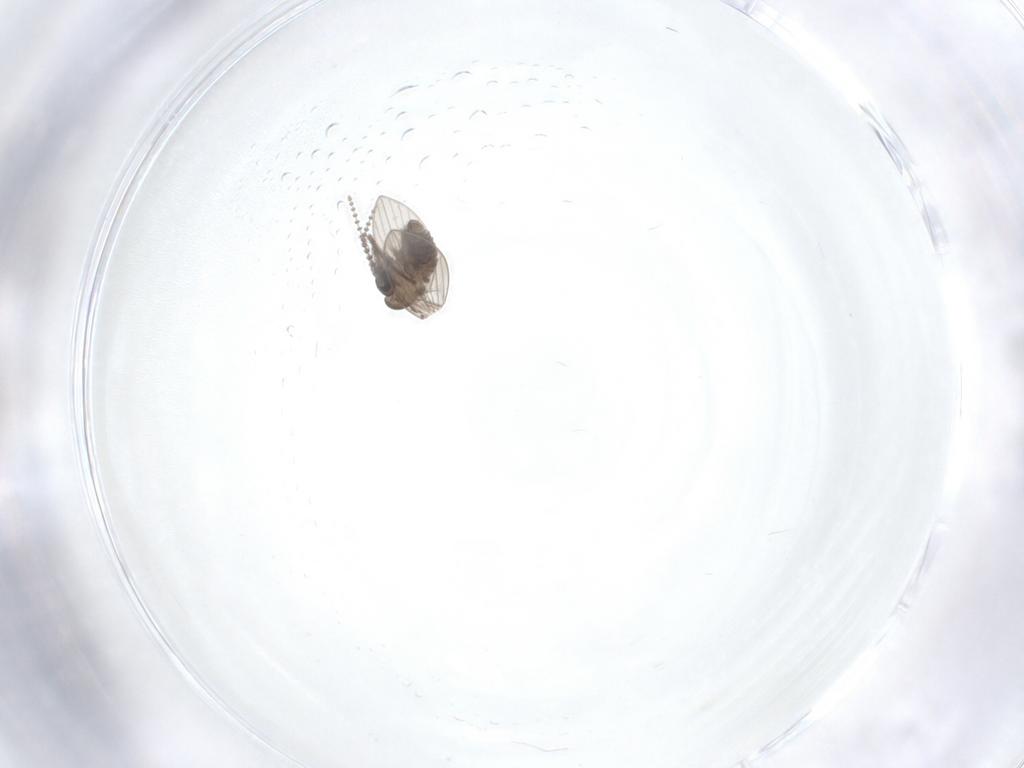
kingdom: Animalia
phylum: Arthropoda
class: Insecta
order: Diptera
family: Psychodidae
